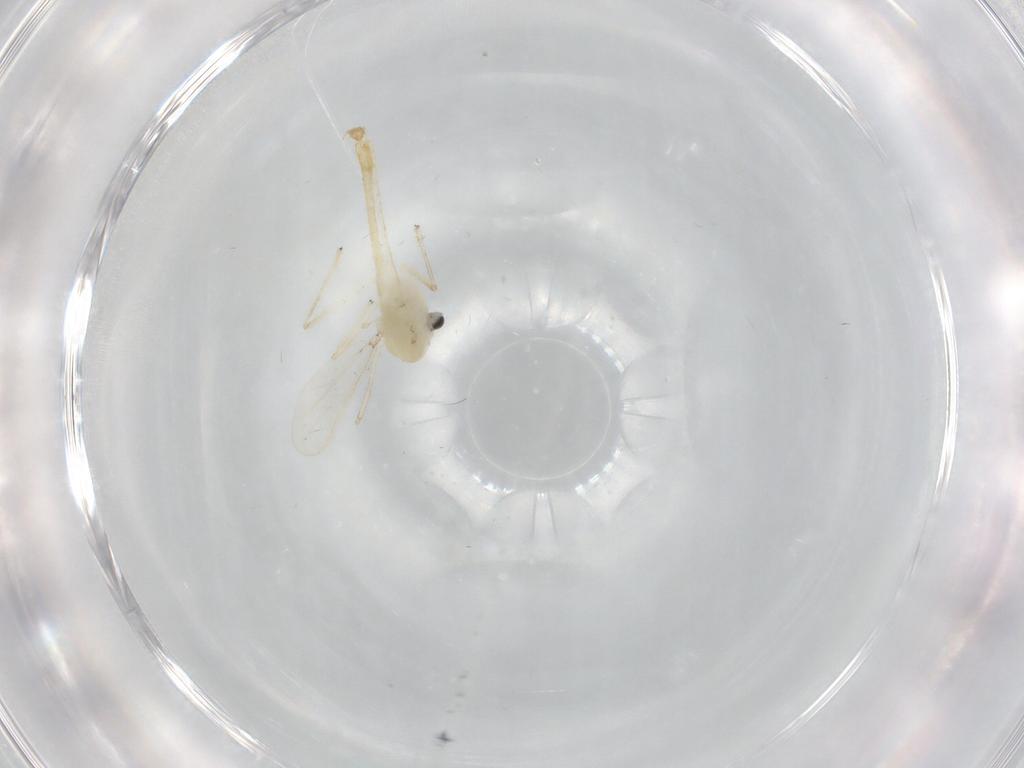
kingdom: Animalia
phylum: Arthropoda
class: Insecta
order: Diptera
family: Chironomidae
